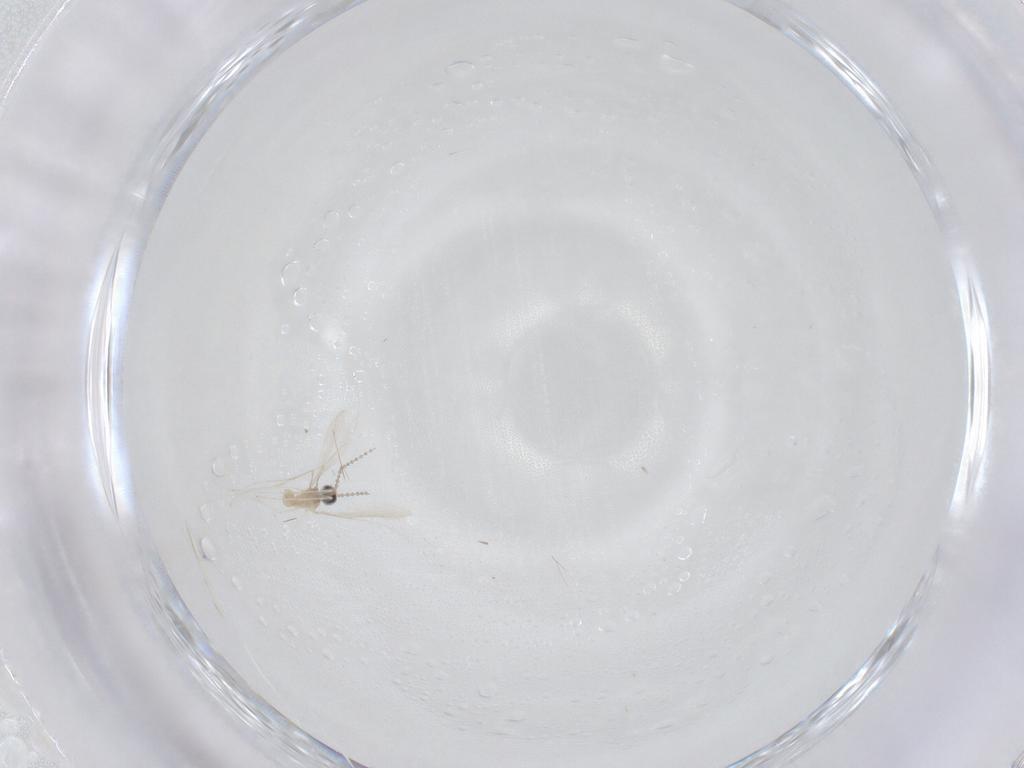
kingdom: Animalia
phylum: Arthropoda
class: Insecta
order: Diptera
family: Cecidomyiidae
